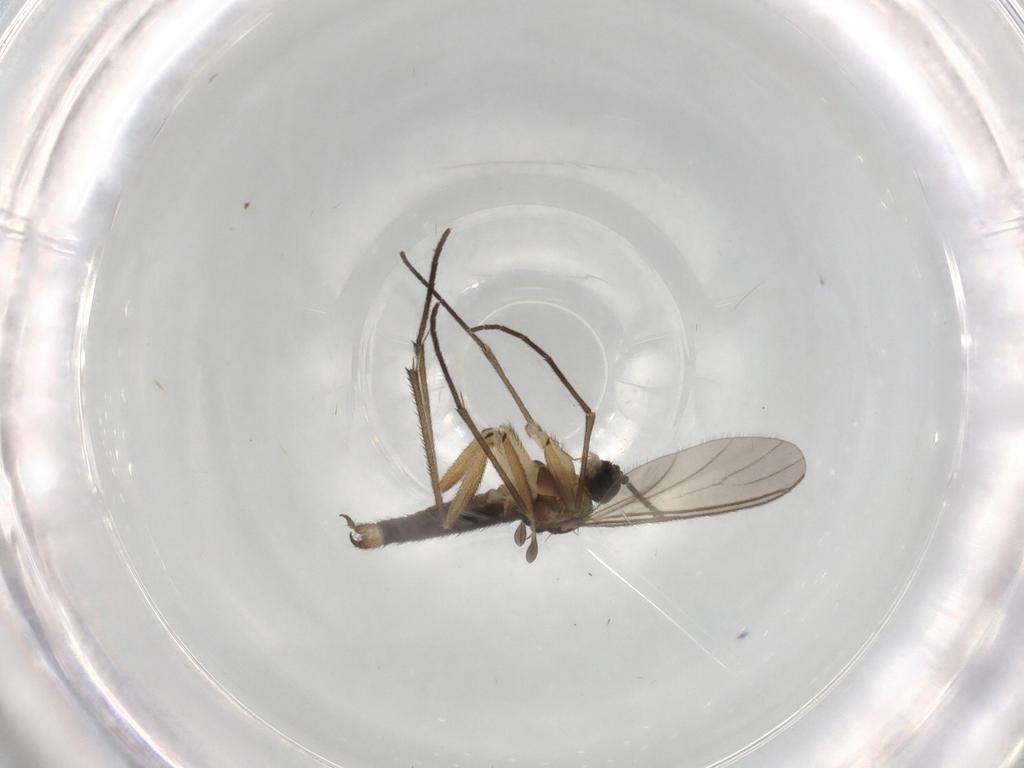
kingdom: Animalia
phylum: Arthropoda
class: Insecta
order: Diptera
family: Sciaridae
